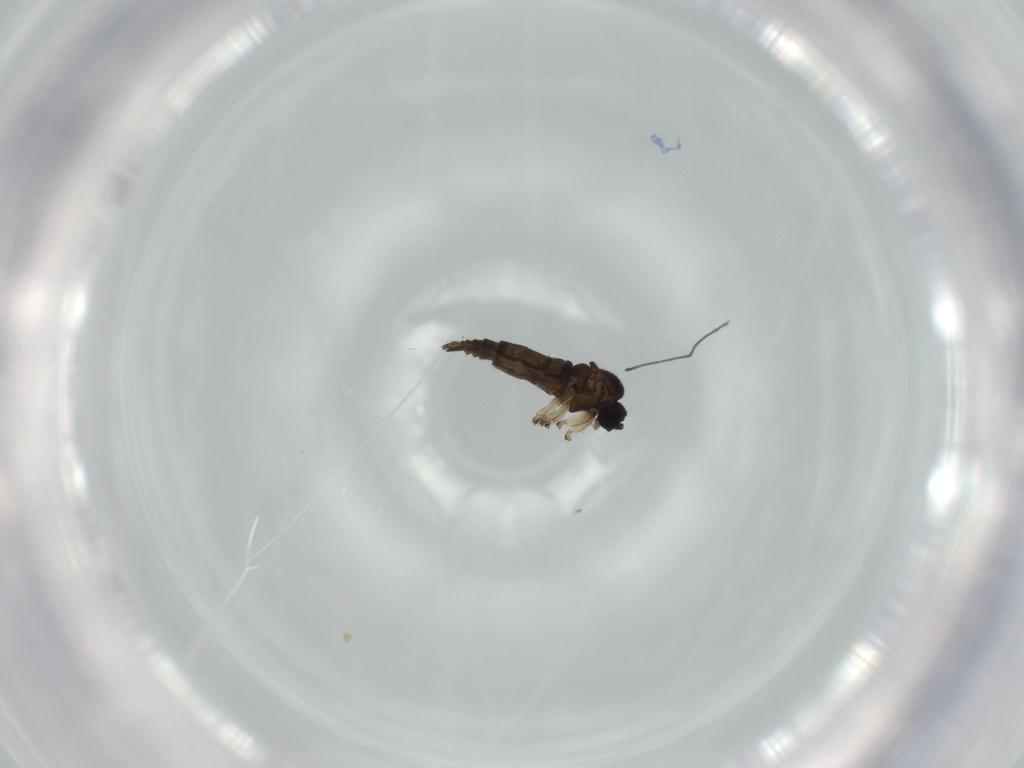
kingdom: Animalia
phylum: Arthropoda
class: Insecta
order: Diptera
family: Sciaridae
